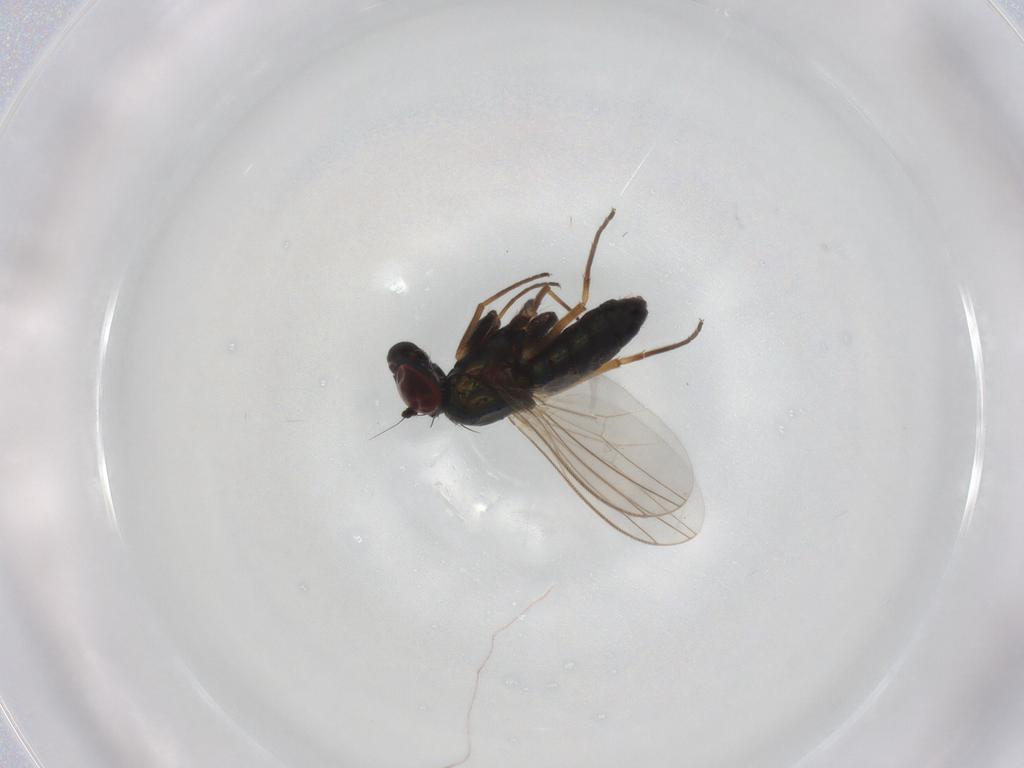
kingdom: Animalia
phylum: Arthropoda
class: Insecta
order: Diptera
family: Dolichopodidae
